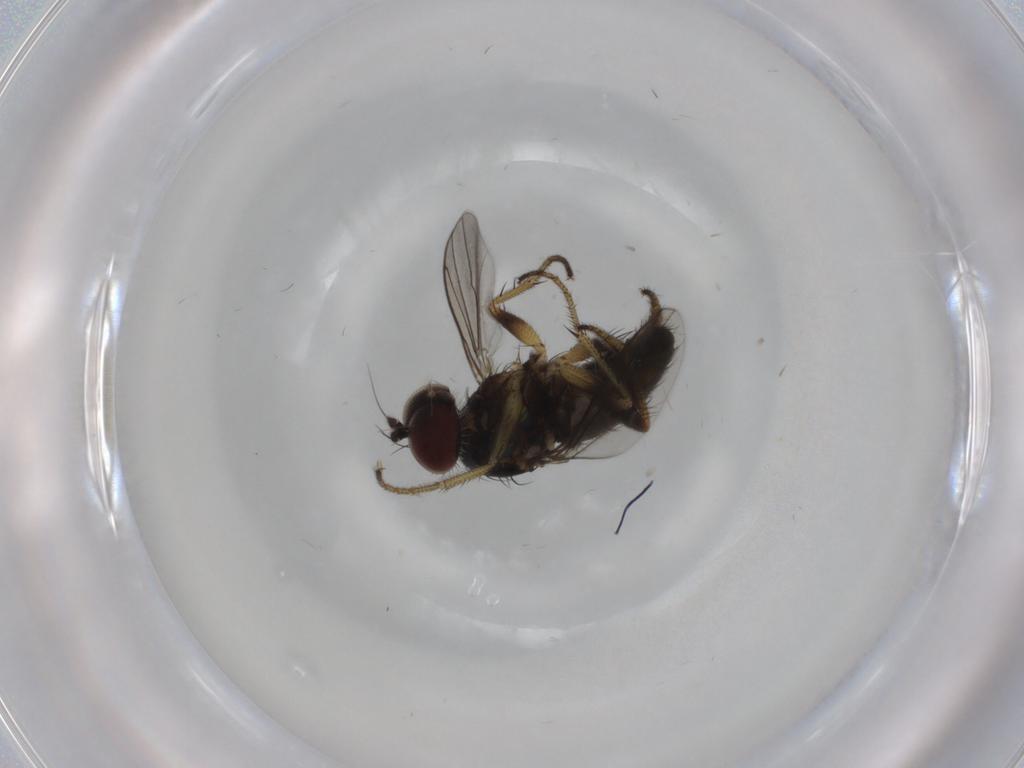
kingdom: Animalia
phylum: Arthropoda
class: Insecta
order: Diptera
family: Dolichopodidae
